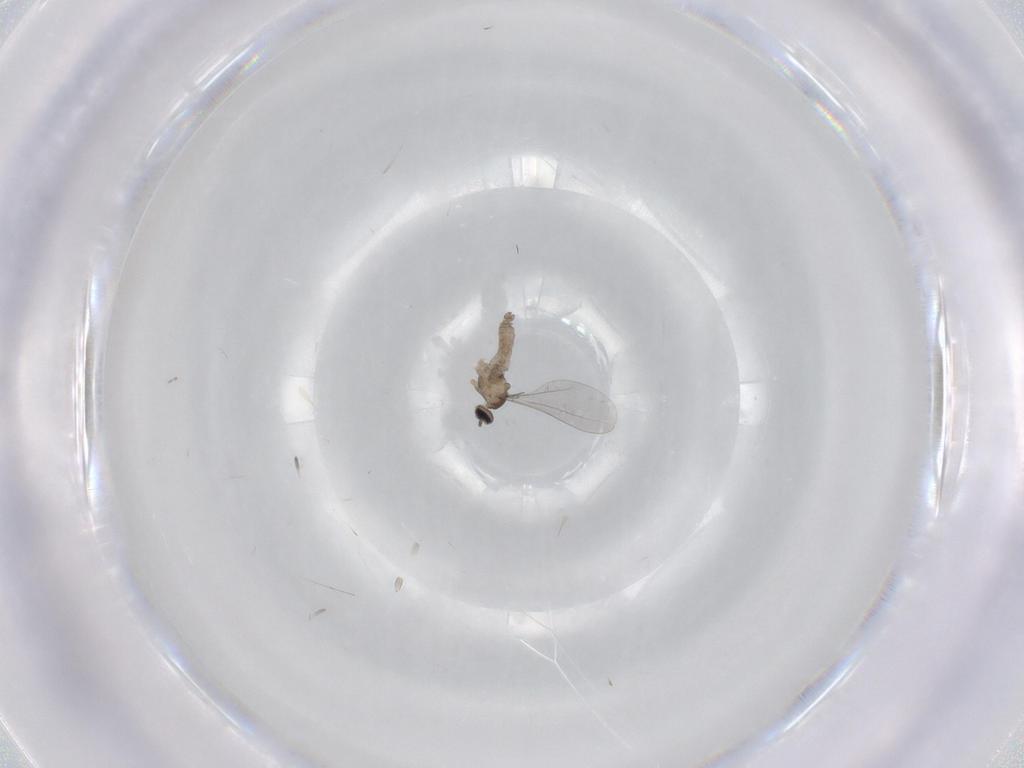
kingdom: Animalia
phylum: Arthropoda
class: Insecta
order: Diptera
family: Cecidomyiidae
